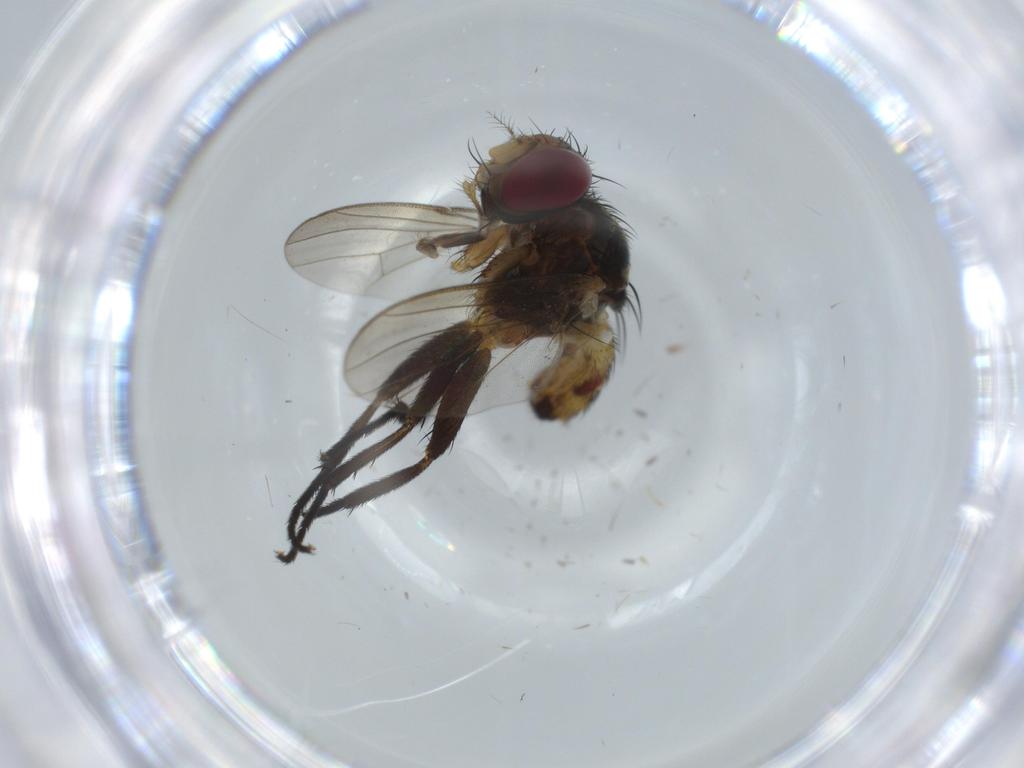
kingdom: Animalia
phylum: Arthropoda
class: Insecta
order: Diptera
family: Anthomyiidae
